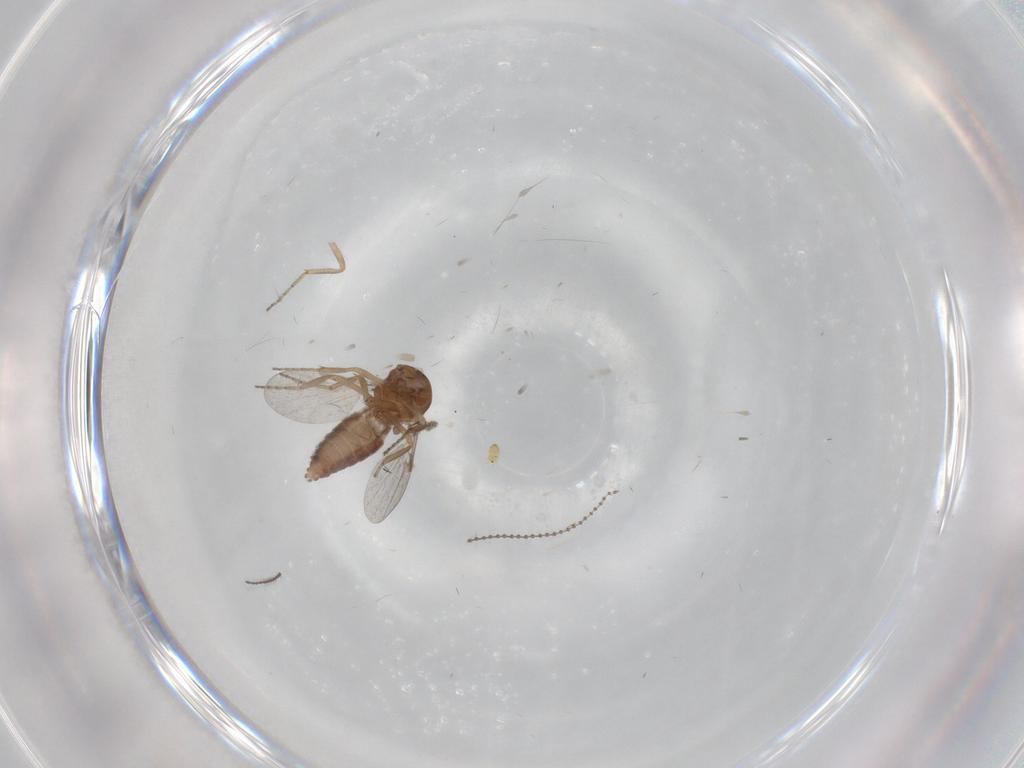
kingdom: Animalia
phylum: Arthropoda
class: Insecta
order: Diptera
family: Cecidomyiidae
